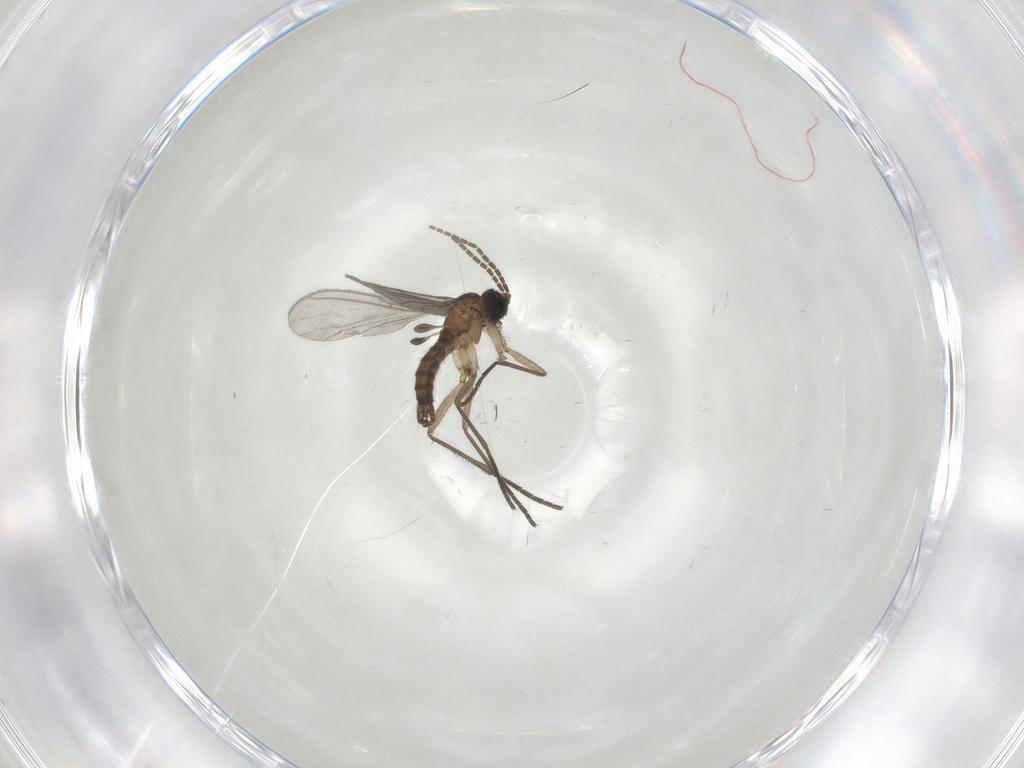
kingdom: Animalia
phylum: Arthropoda
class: Insecta
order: Diptera
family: Sciaridae
